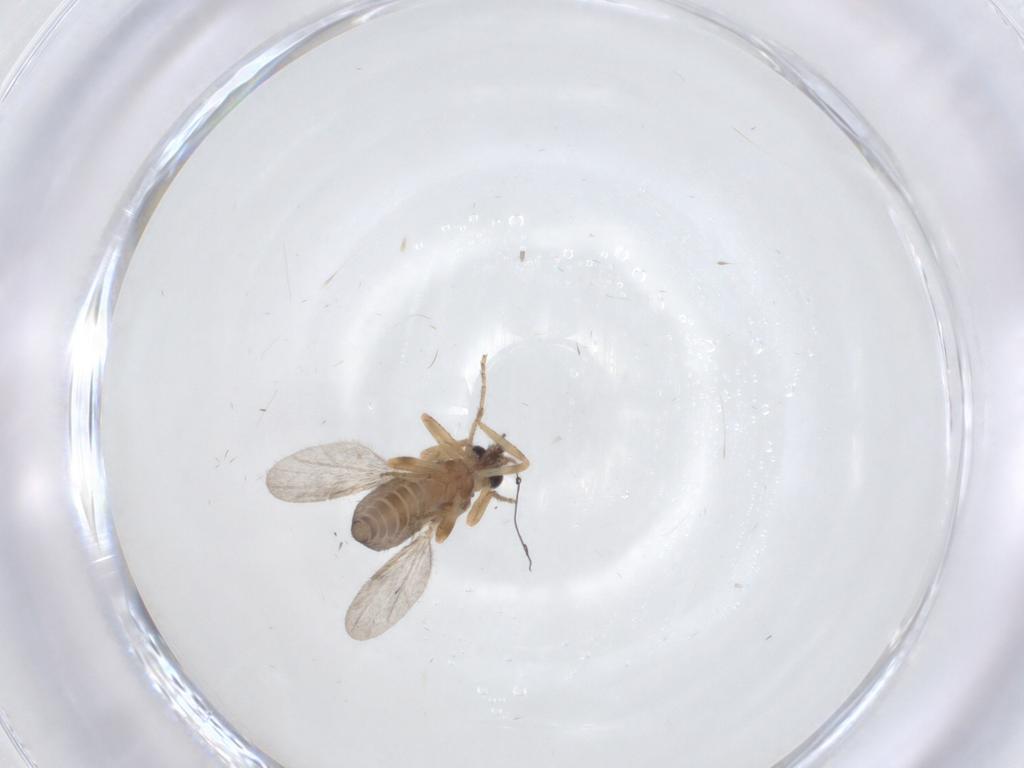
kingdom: Animalia
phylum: Arthropoda
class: Insecta
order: Diptera
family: Ceratopogonidae
